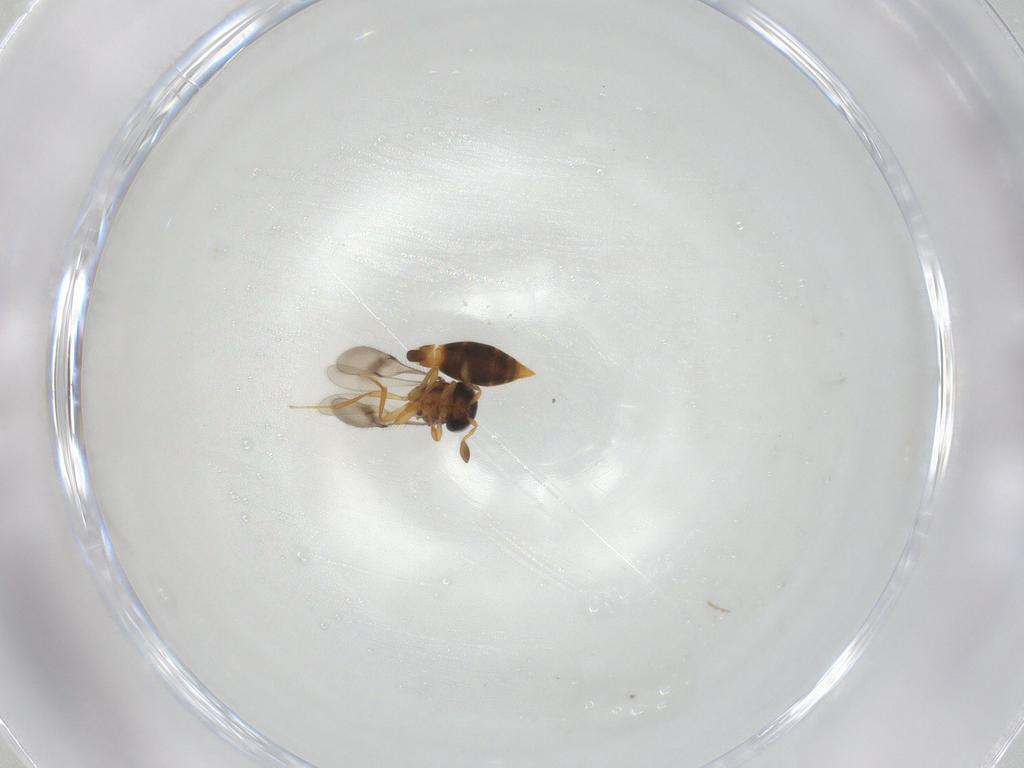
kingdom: Animalia
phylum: Arthropoda
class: Insecta
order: Hymenoptera
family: Scelionidae
